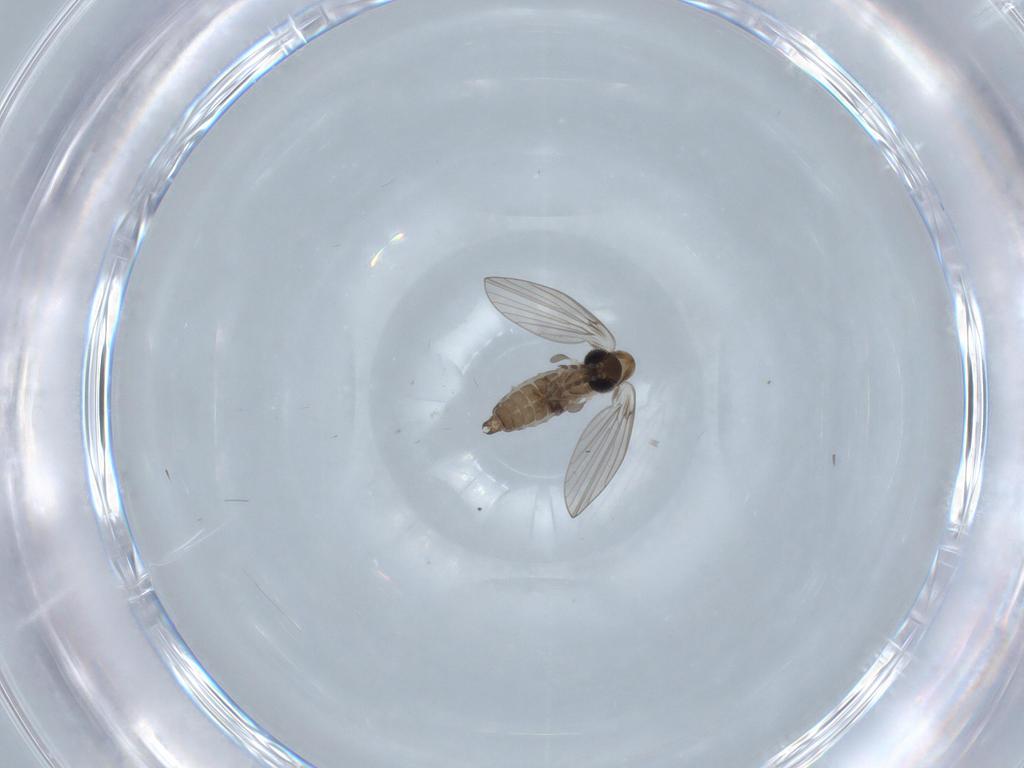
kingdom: Animalia
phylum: Arthropoda
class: Insecta
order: Diptera
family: Psychodidae
